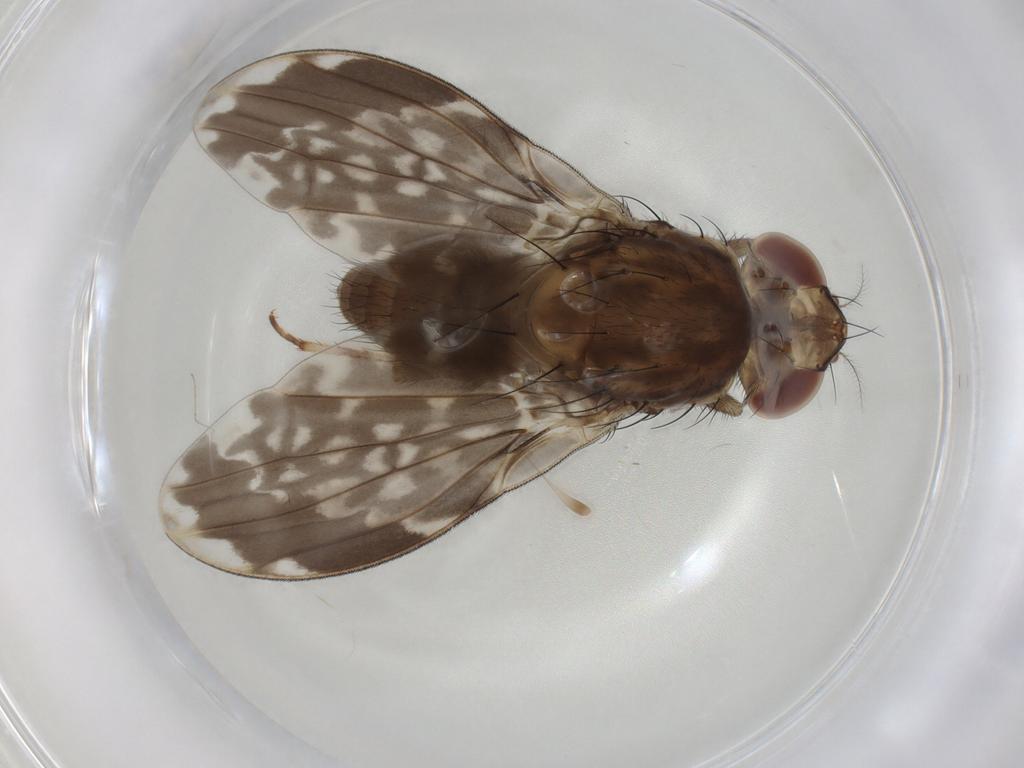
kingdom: Animalia
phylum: Arthropoda
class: Insecta
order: Diptera
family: Sciaridae
